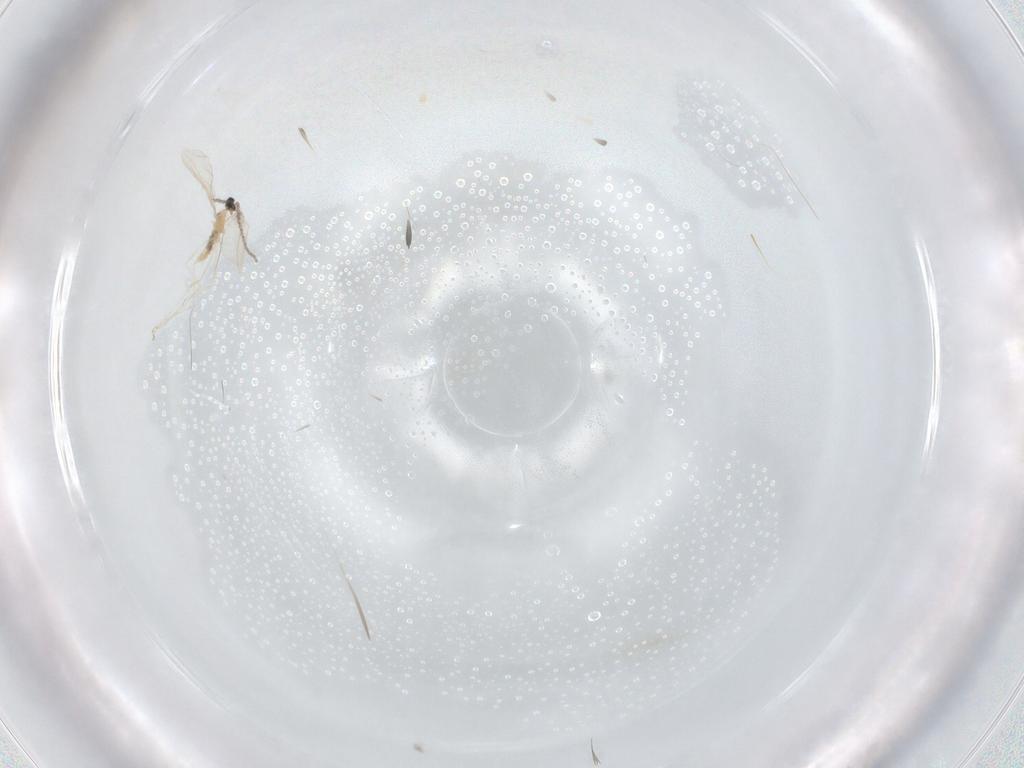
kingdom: Animalia
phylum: Arthropoda
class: Insecta
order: Diptera
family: Cecidomyiidae
